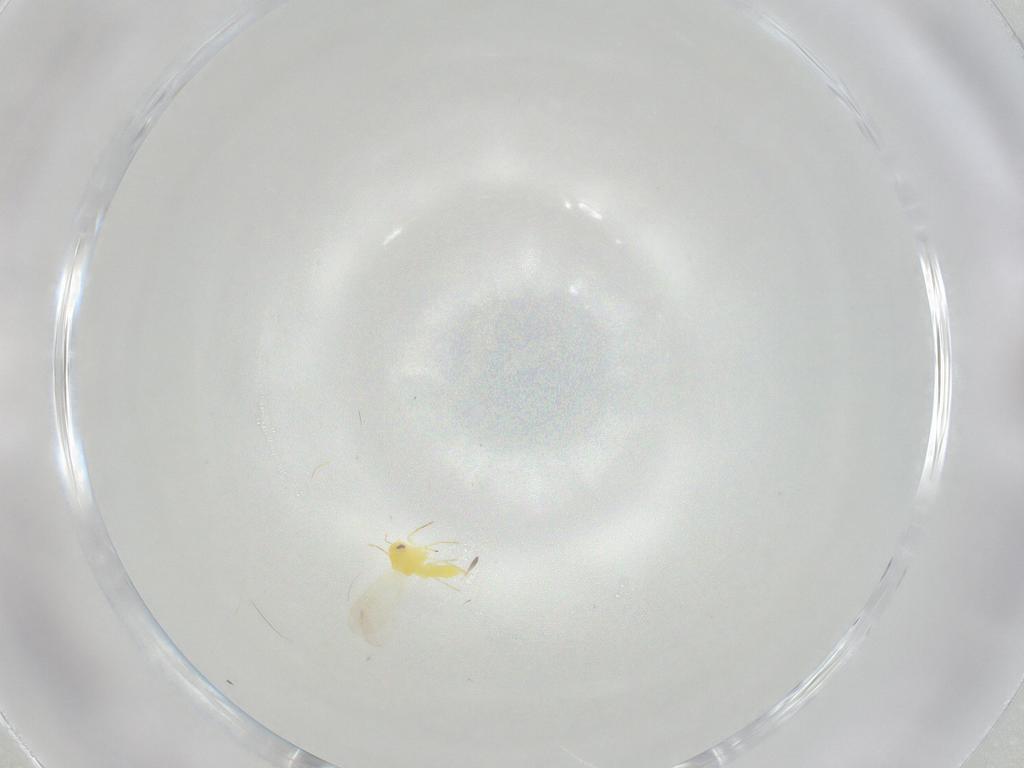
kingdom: Animalia
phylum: Arthropoda
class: Insecta
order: Hemiptera
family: Aleyrodidae
